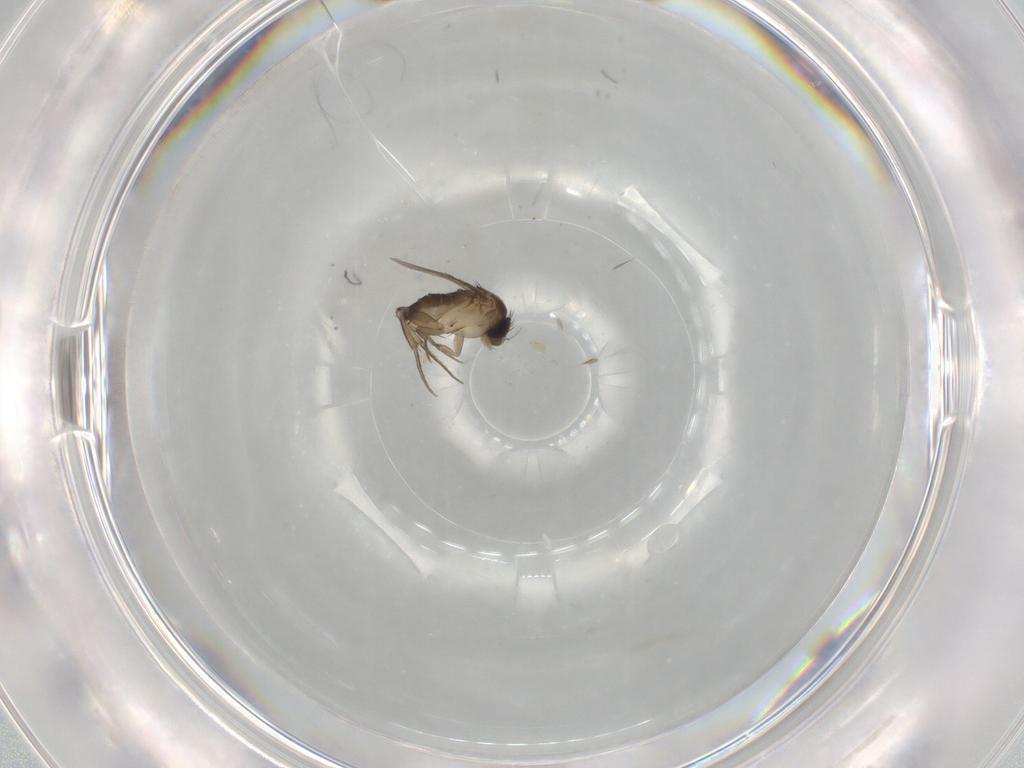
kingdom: Animalia
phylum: Arthropoda
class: Insecta
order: Diptera
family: Phoridae
